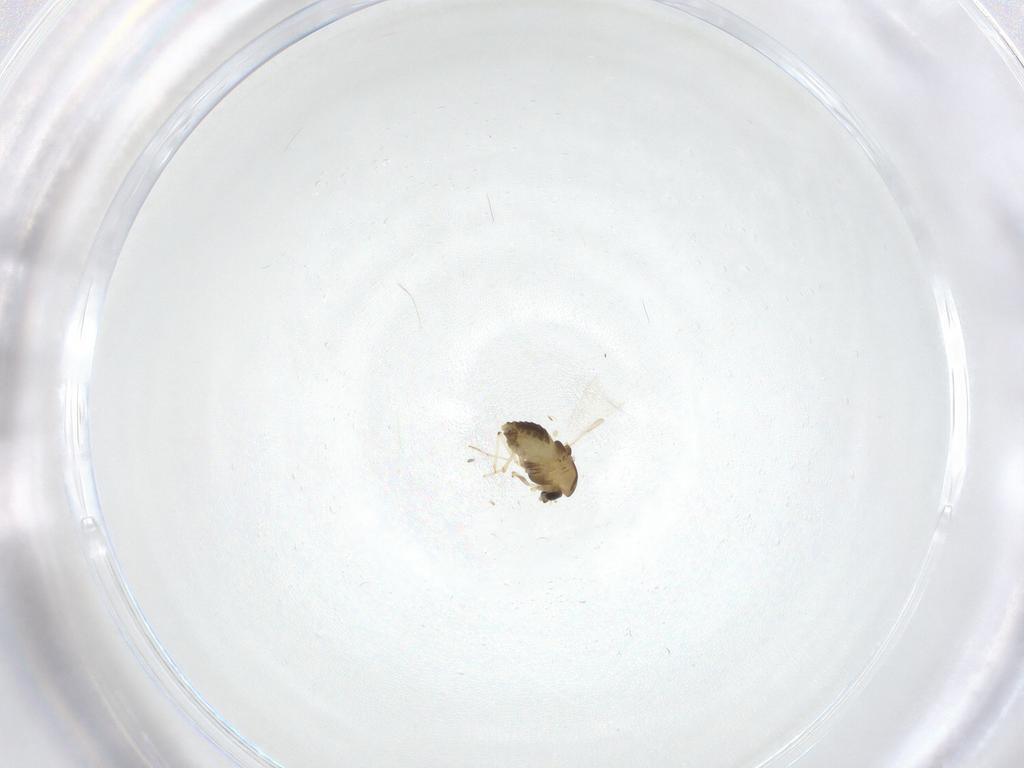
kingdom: Animalia
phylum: Arthropoda
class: Insecta
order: Diptera
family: Chironomidae
